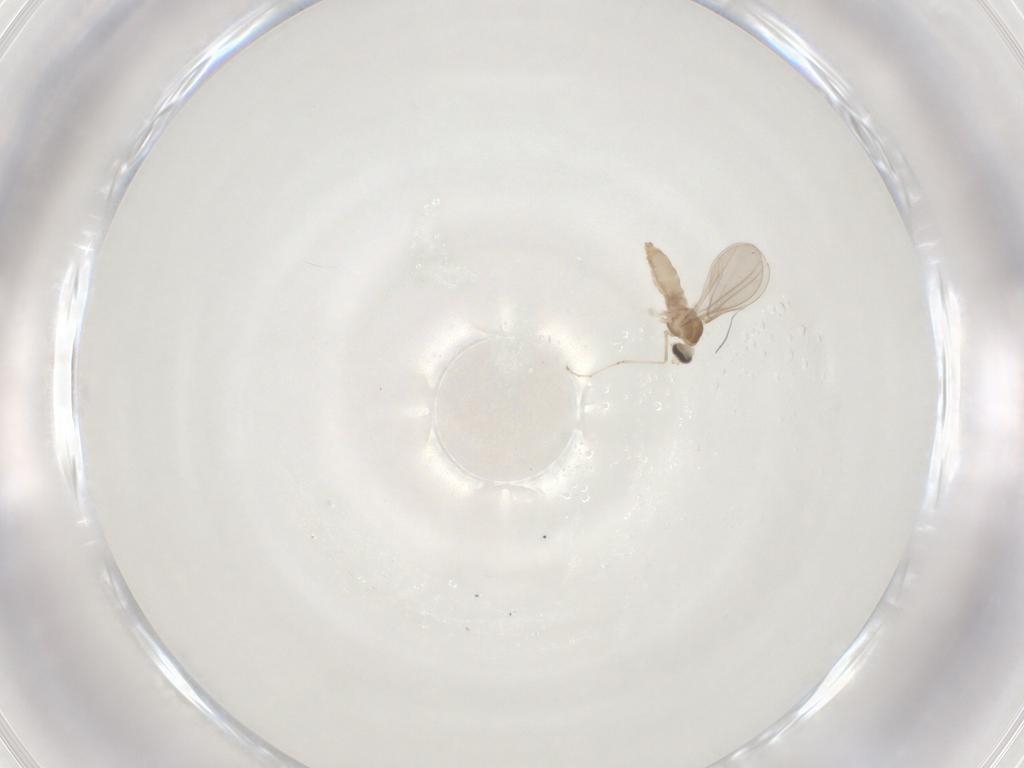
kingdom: Animalia
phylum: Arthropoda
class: Insecta
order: Diptera
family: Cecidomyiidae
